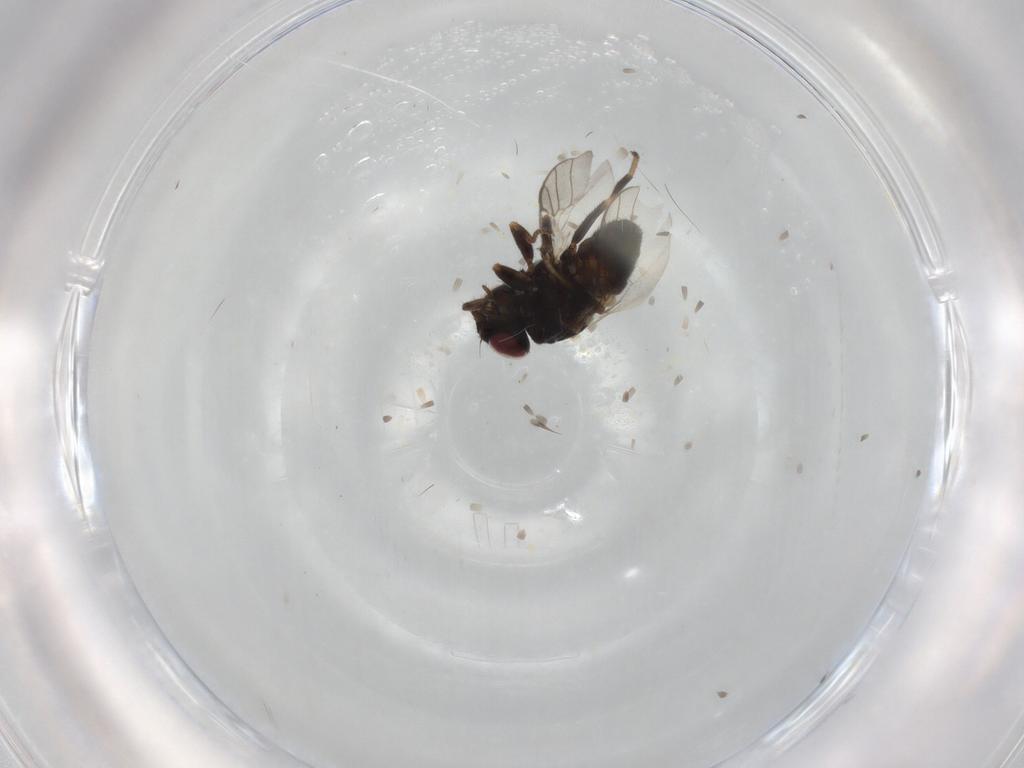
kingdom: Animalia
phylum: Arthropoda
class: Insecta
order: Diptera
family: Chloropidae
